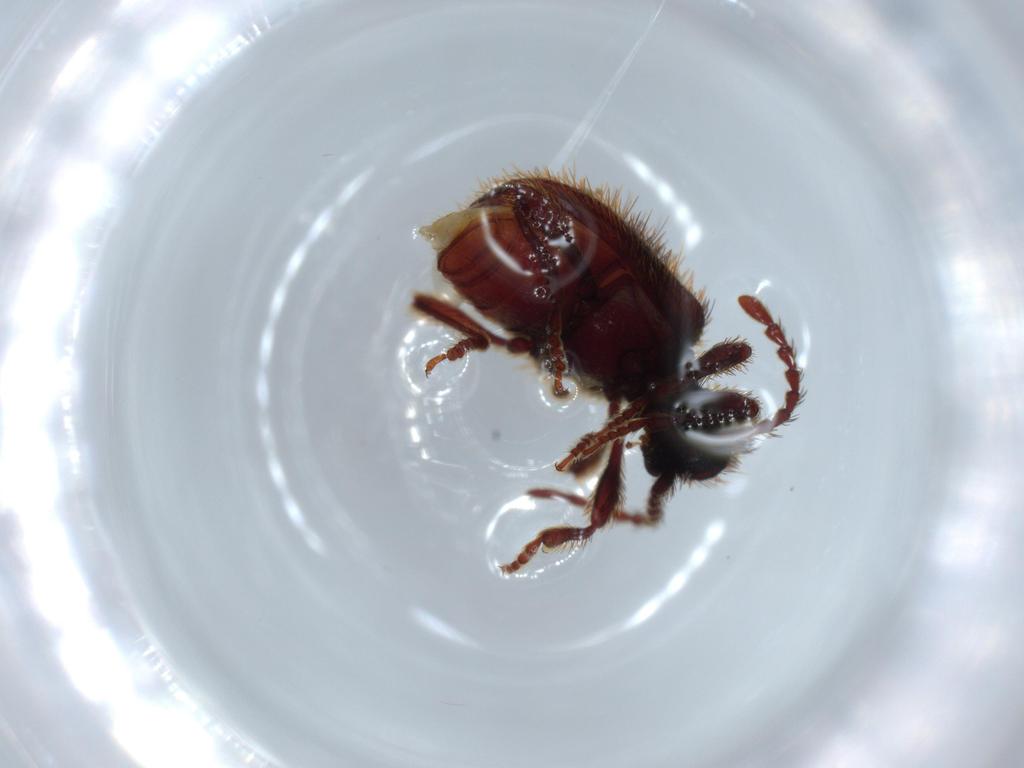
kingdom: Animalia
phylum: Arthropoda
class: Insecta
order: Coleoptera
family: Ptinidae
